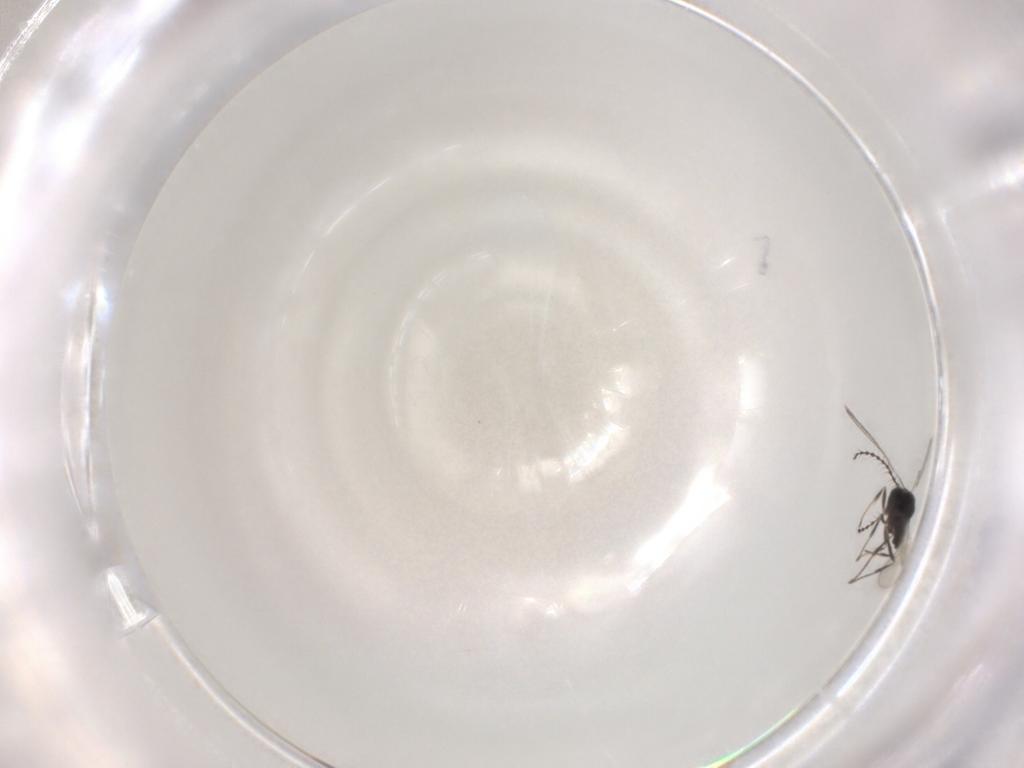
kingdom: Animalia
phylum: Arthropoda
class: Insecta
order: Hymenoptera
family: Scelionidae
